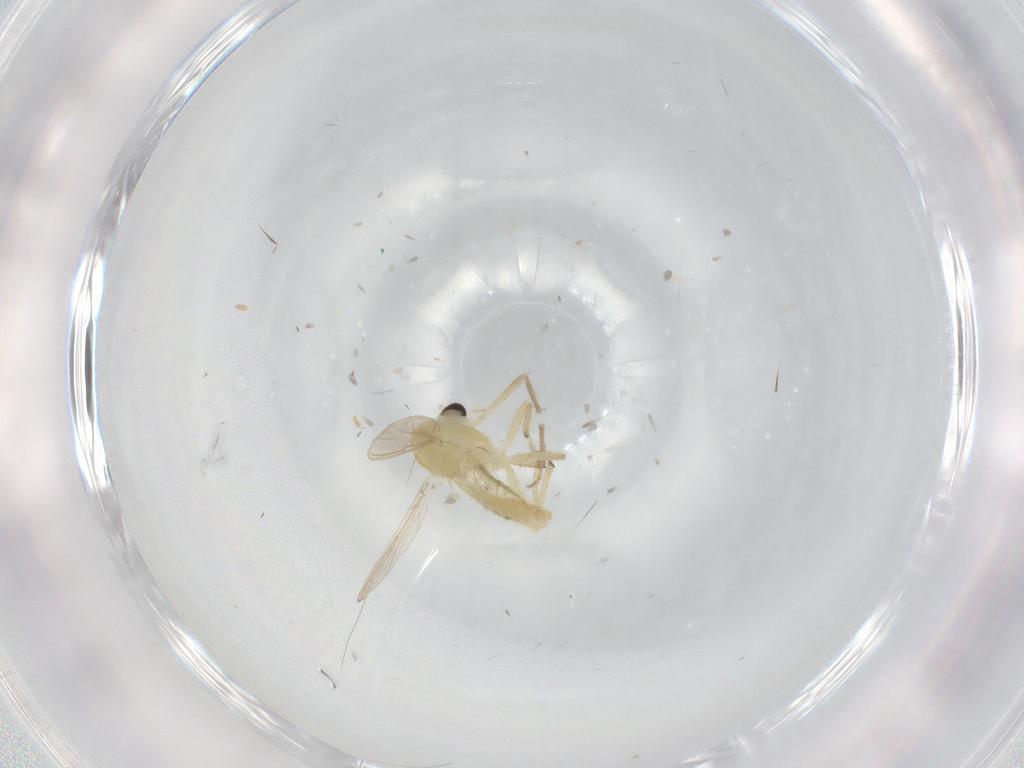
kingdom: Animalia
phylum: Arthropoda
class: Insecta
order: Diptera
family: Chironomidae
